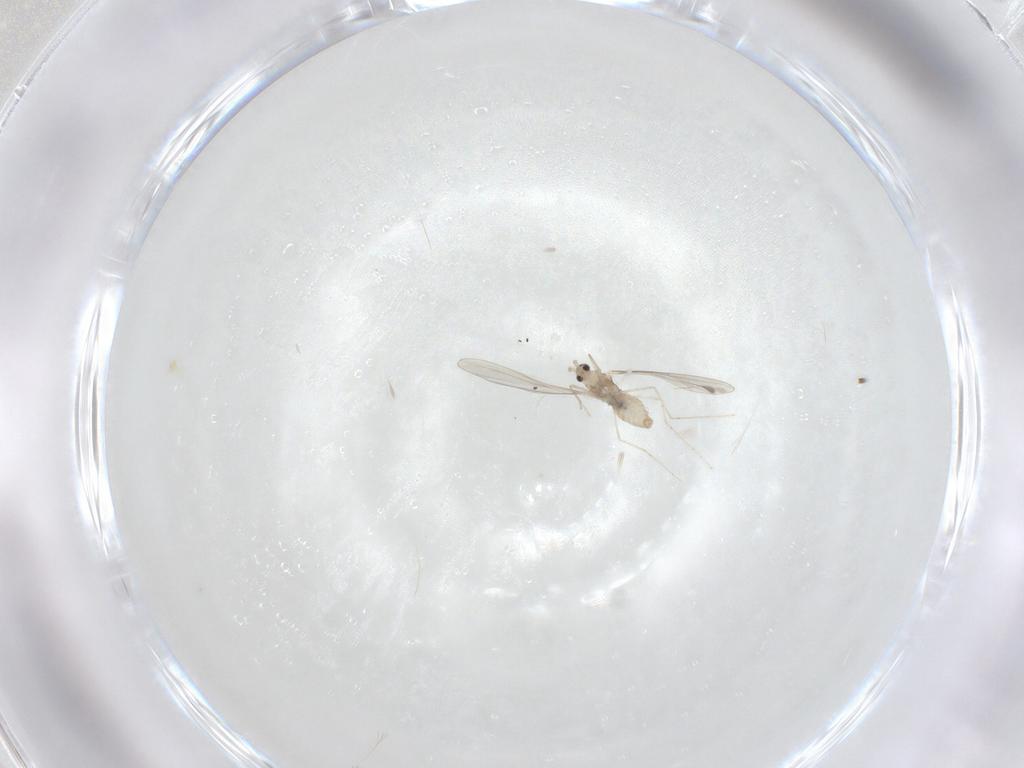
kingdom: Animalia
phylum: Arthropoda
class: Insecta
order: Diptera
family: Cecidomyiidae
